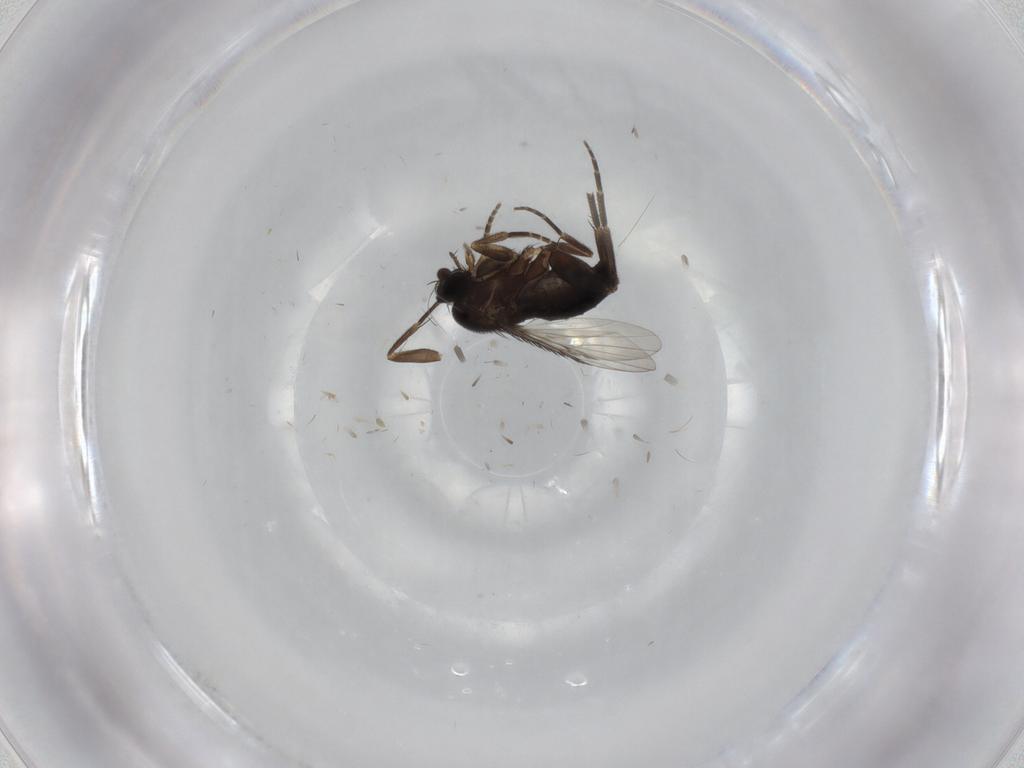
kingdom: Animalia
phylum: Arthropoda
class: Insecta
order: Diptera
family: Phoridae
